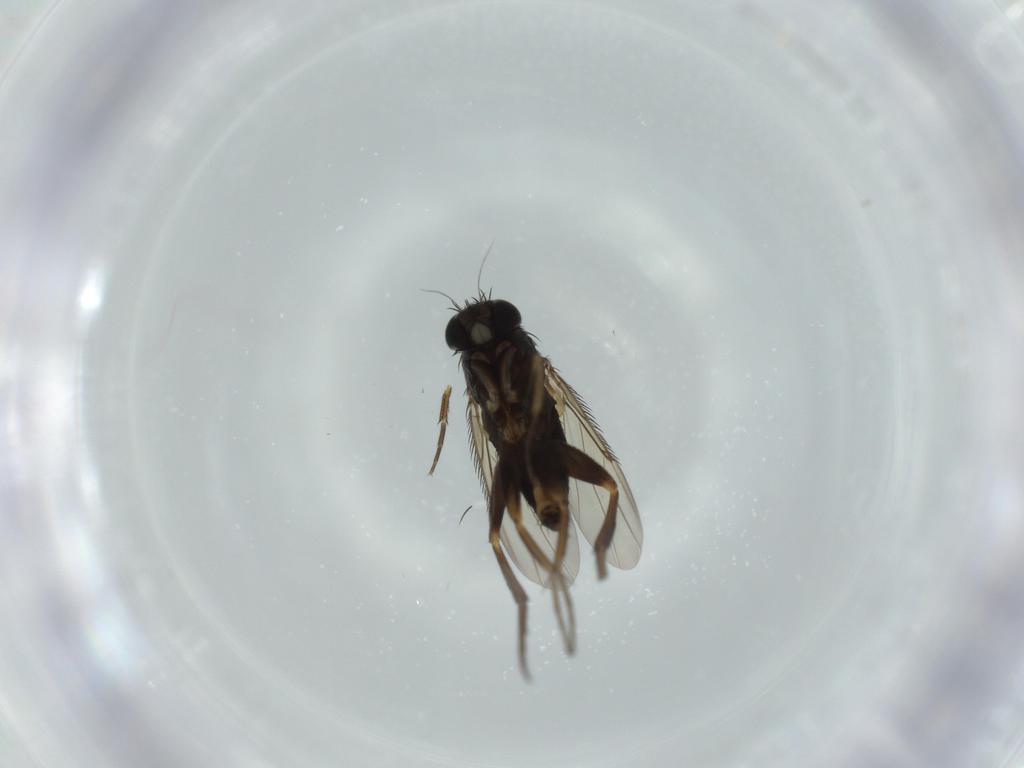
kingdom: Animalia
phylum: Arthropoda
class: Insecta
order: Diptera
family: Phoridae
